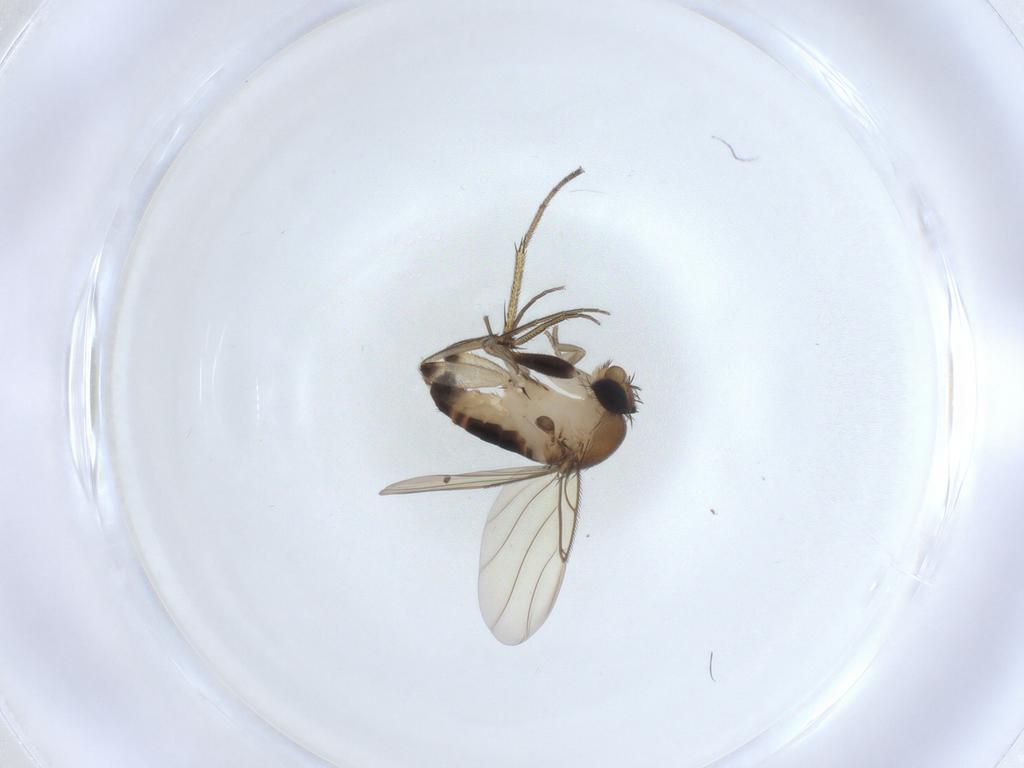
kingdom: Animalia
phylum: Arthropoda
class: Insecta
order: Diptera
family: Phoridae
